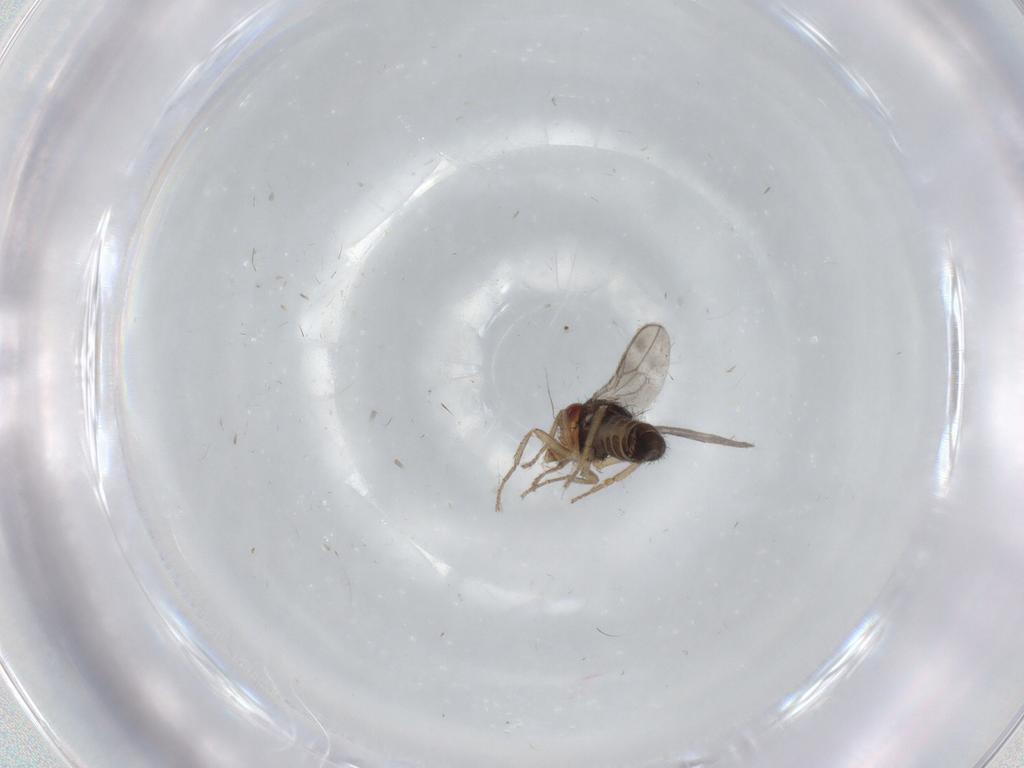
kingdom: Animalia
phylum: Arthropoda
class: Insecta
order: Diptera
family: Sphaeroceridae
